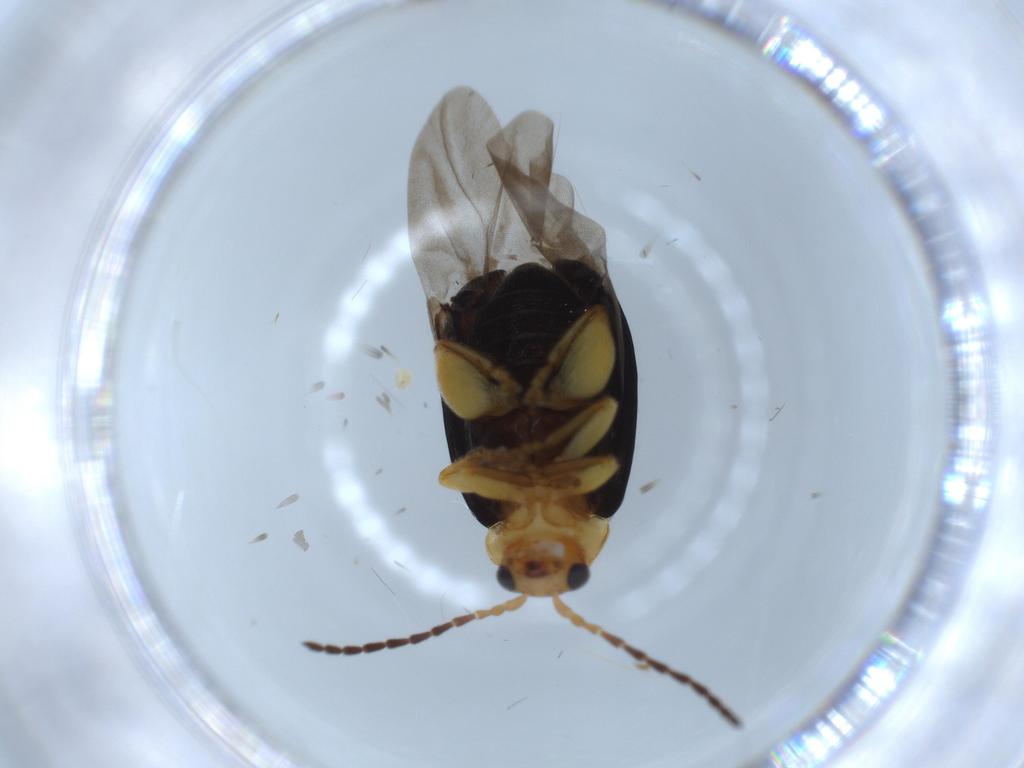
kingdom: Animalia
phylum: Arthropoda
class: Insecta
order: Coleoptera
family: Chrysomelidae
